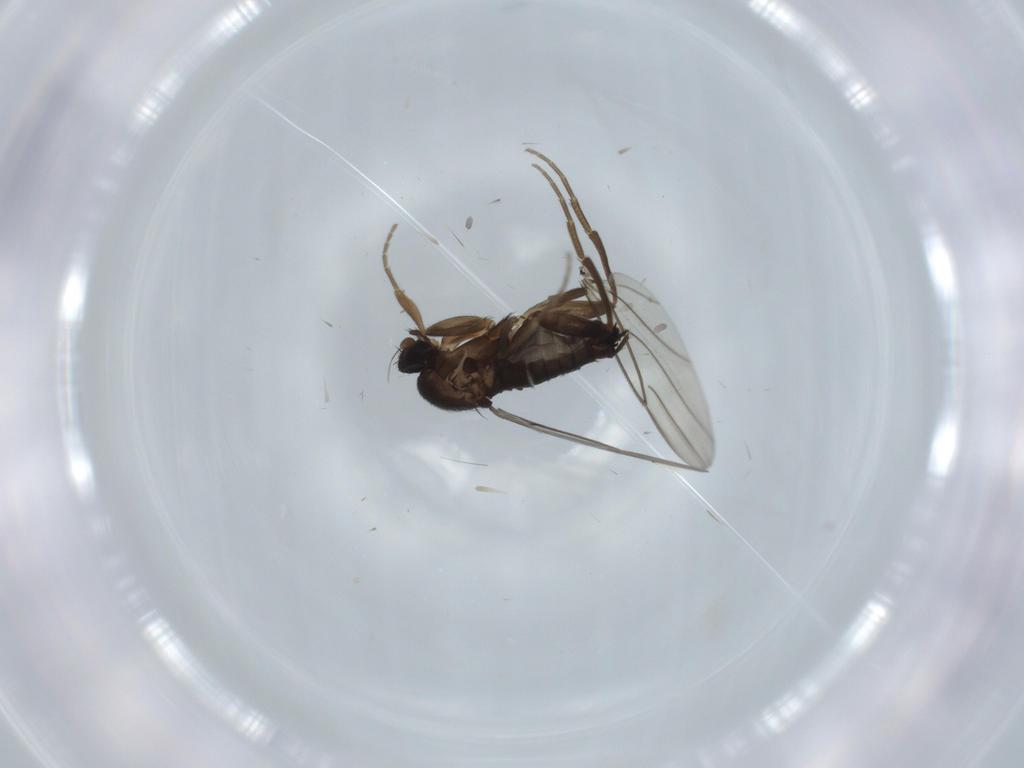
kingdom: Animalia
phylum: Arthropoda
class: Insecta
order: Diptera
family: Chironomidae
